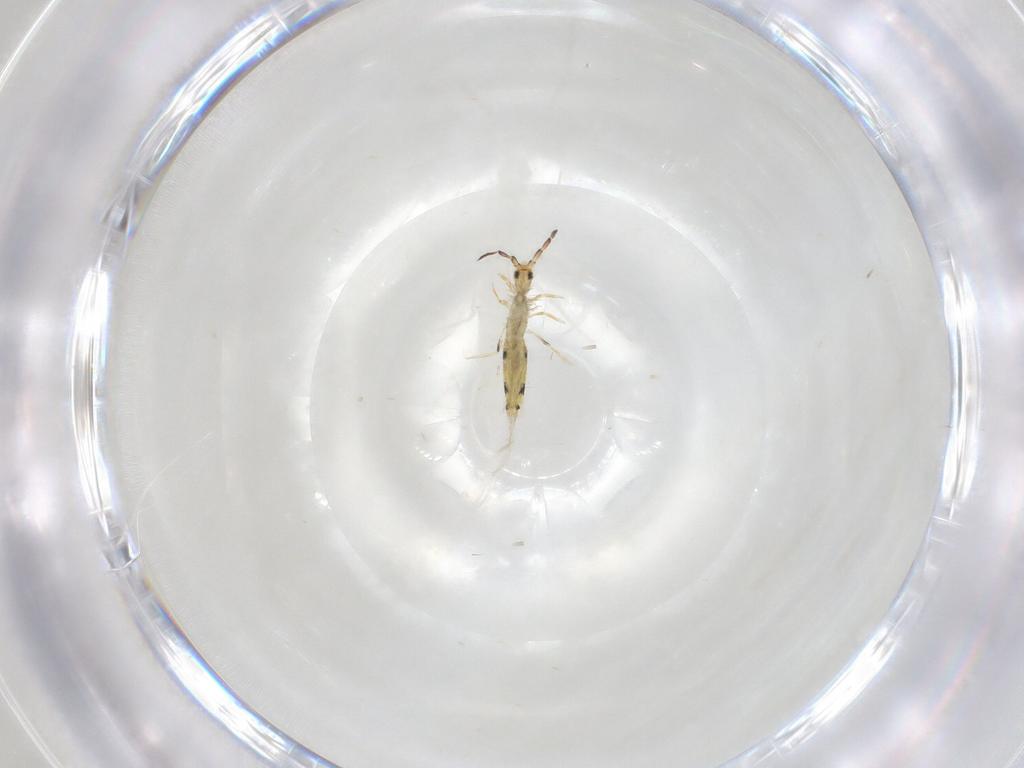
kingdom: Animalia
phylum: Arthropoda
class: Collembola
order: Entomobryomorpha
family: Entomobryidae
